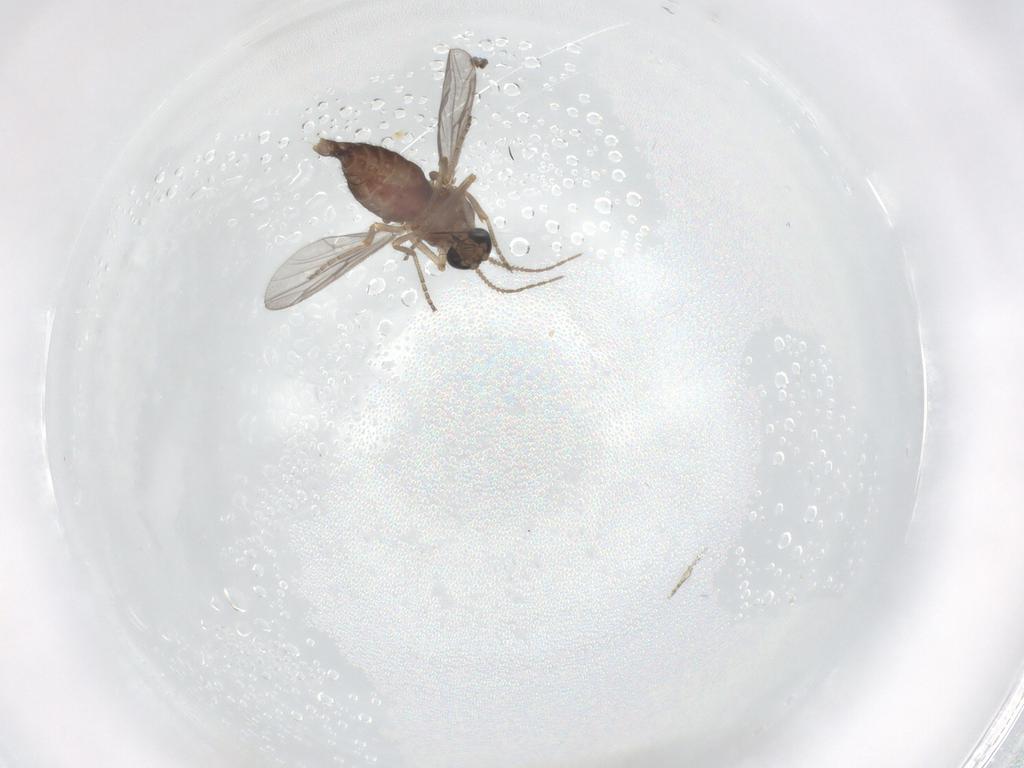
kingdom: Animalia
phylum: Arthropoda
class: Insecta
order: Diptera
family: Ceratopogonidae
